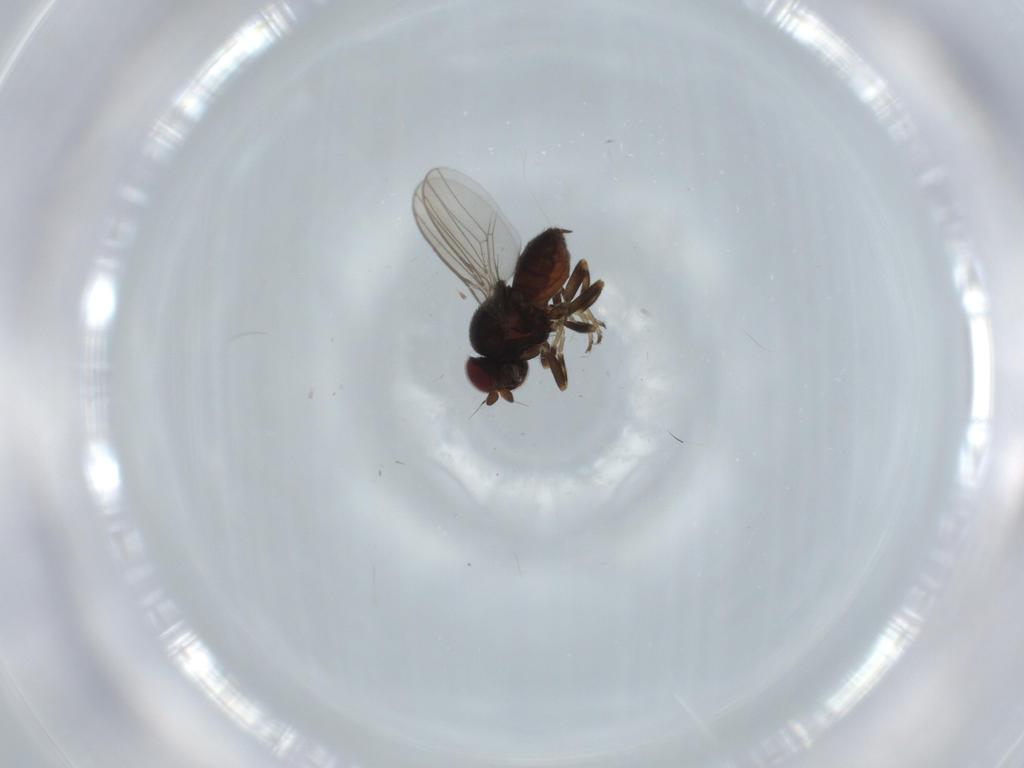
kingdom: Animalia
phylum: Arthropoda
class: Insecta
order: Diptera
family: Chloropidae
